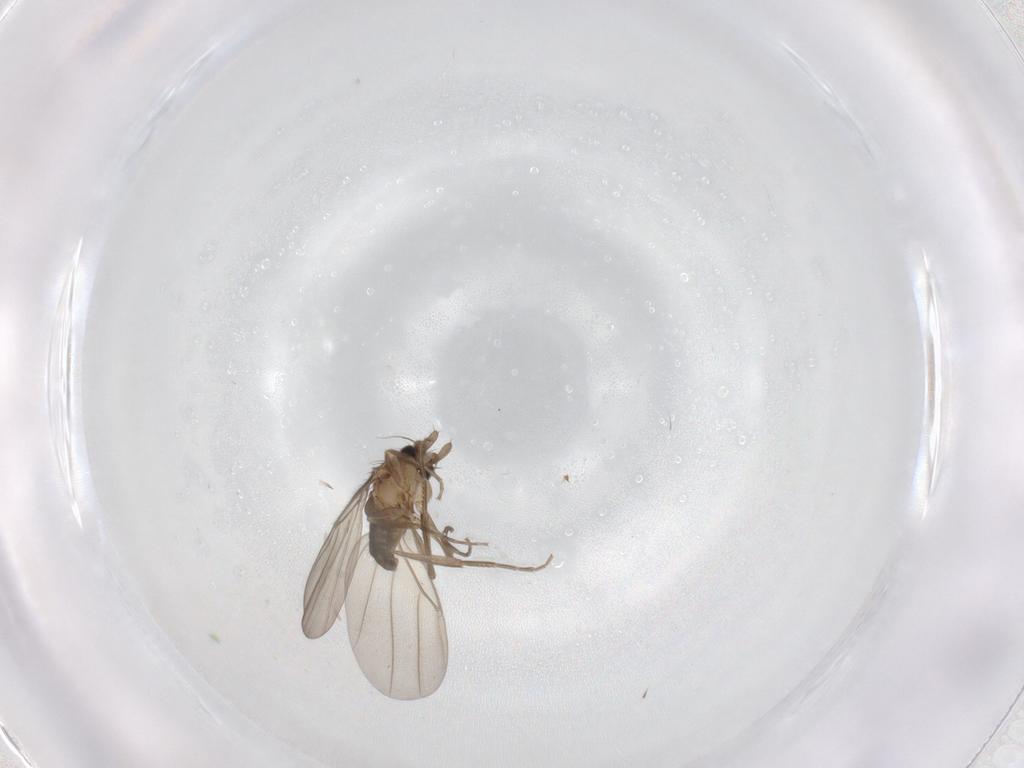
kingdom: Animalia
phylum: Arthropoda
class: Insecta
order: Diptera
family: Phoridae
